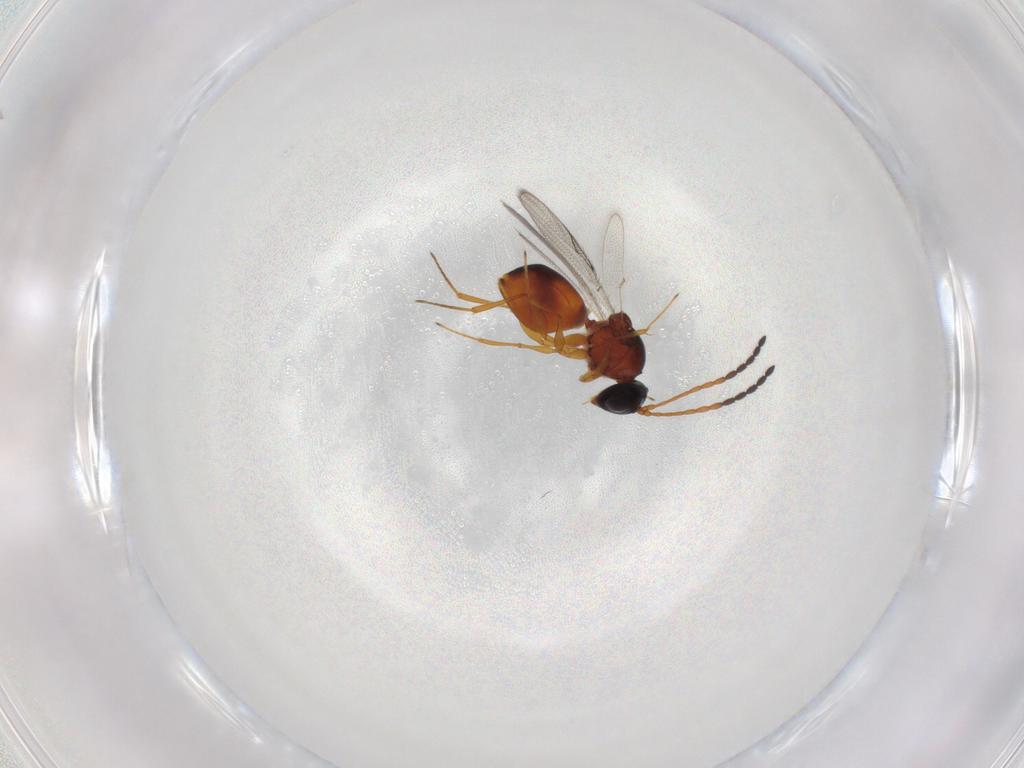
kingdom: Animalia
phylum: Arthropoda
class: Insecta
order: Hymenoptera
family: Figitidae
